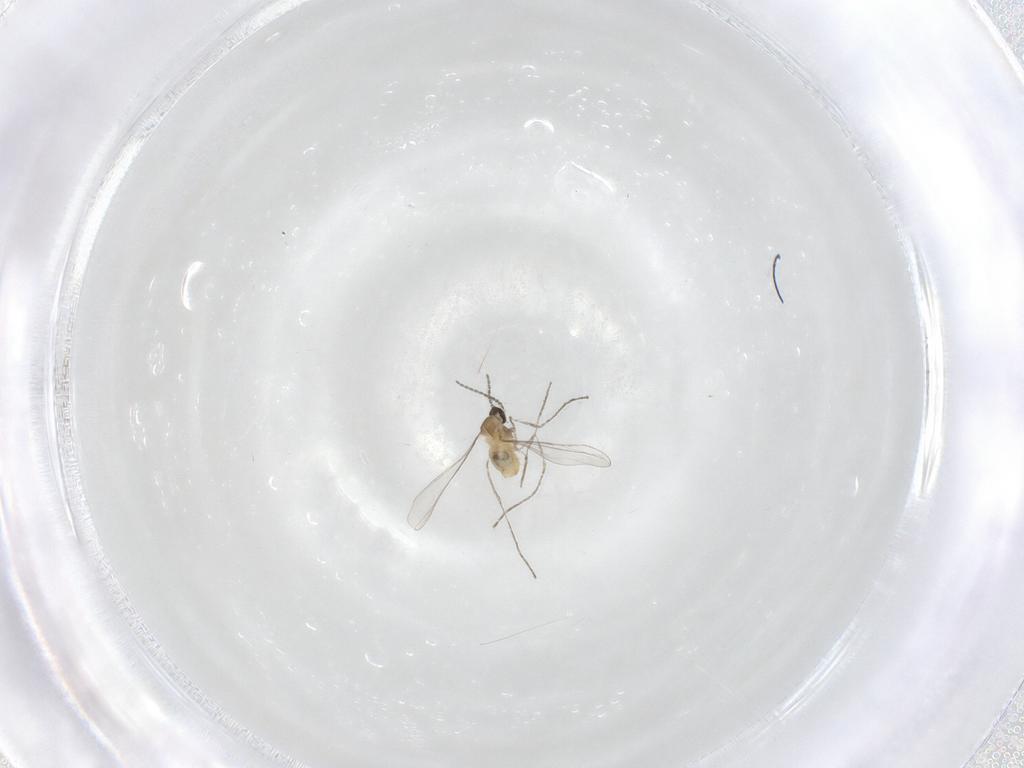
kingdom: Animalia
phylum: Arthropoda
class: Insecta
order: Diptera
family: Cecidomyiidae
